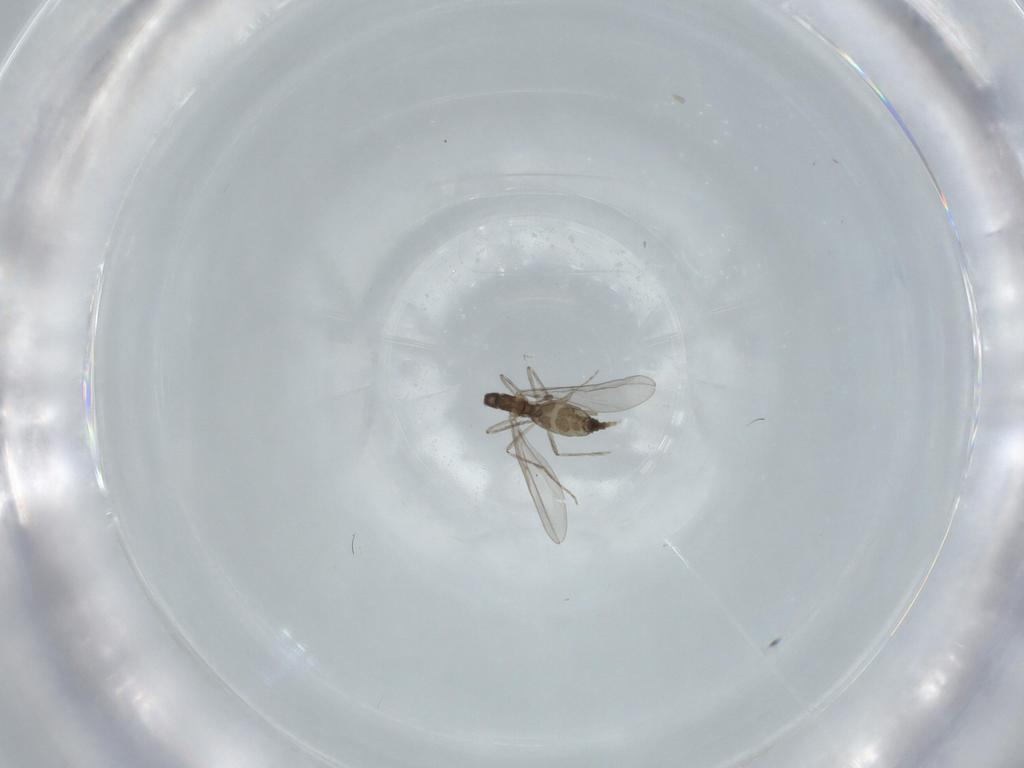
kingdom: Animalia
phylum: Arthropoda
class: Insecta
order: Diptera
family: Cecidomyiidae
